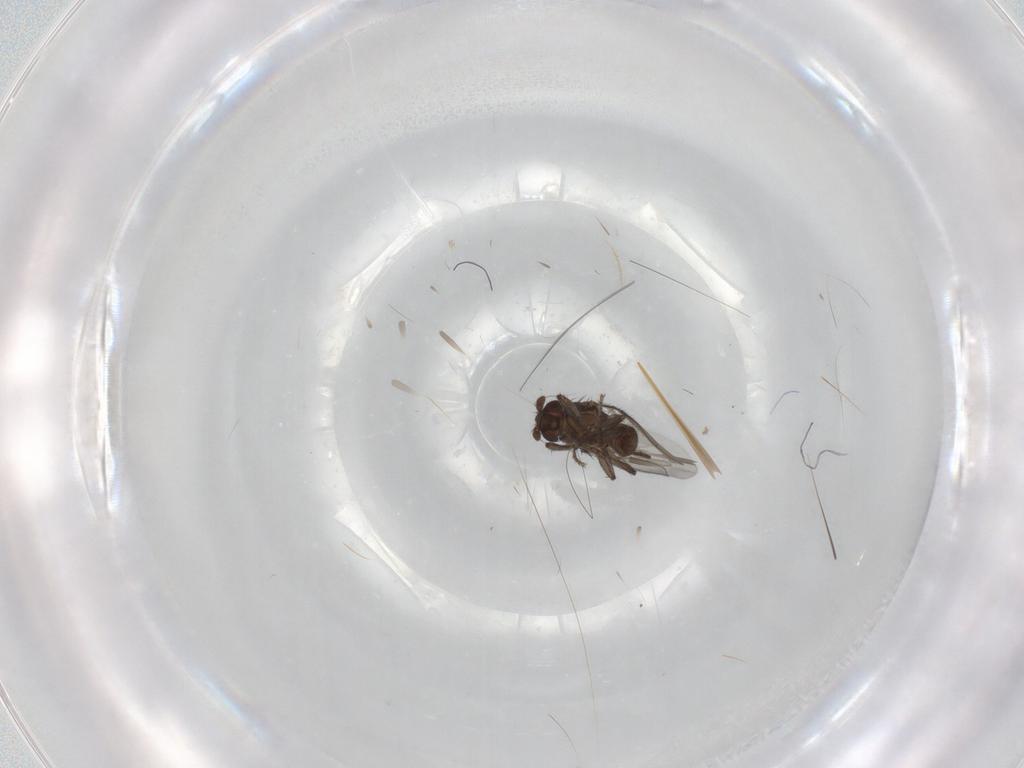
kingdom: Animalia
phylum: Arthropoda
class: Insecta
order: Diptera
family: Sphaeroceridae
